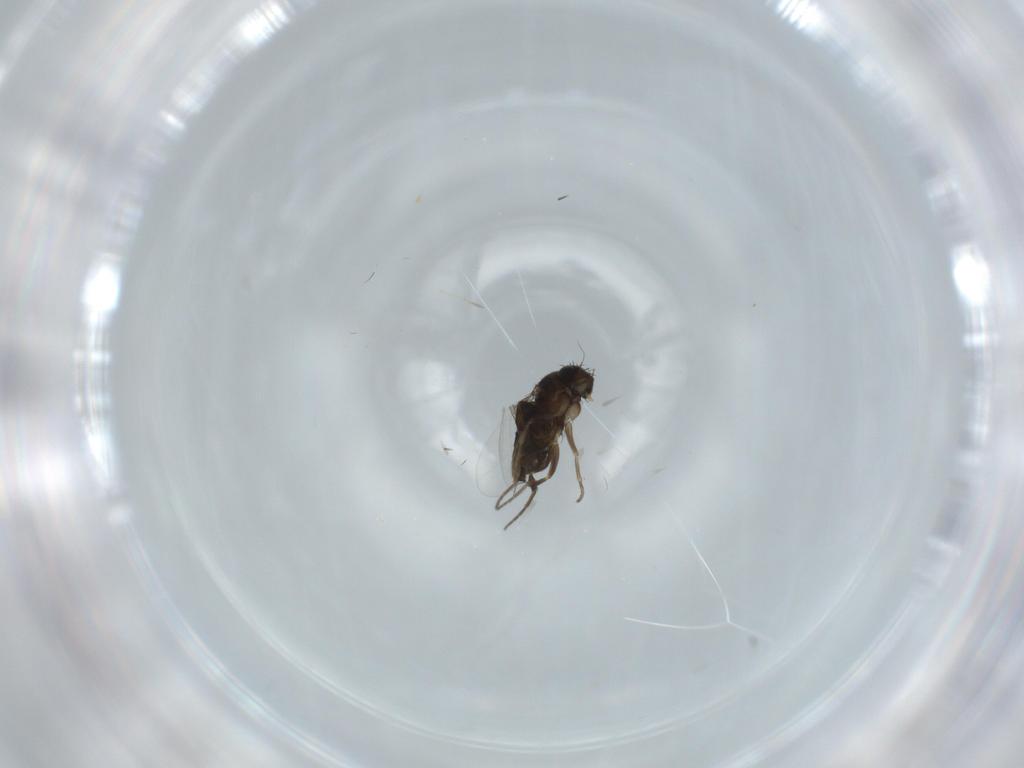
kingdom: Animalia
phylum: Arthropoda
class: Insecta
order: Diptera
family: Phoridae
